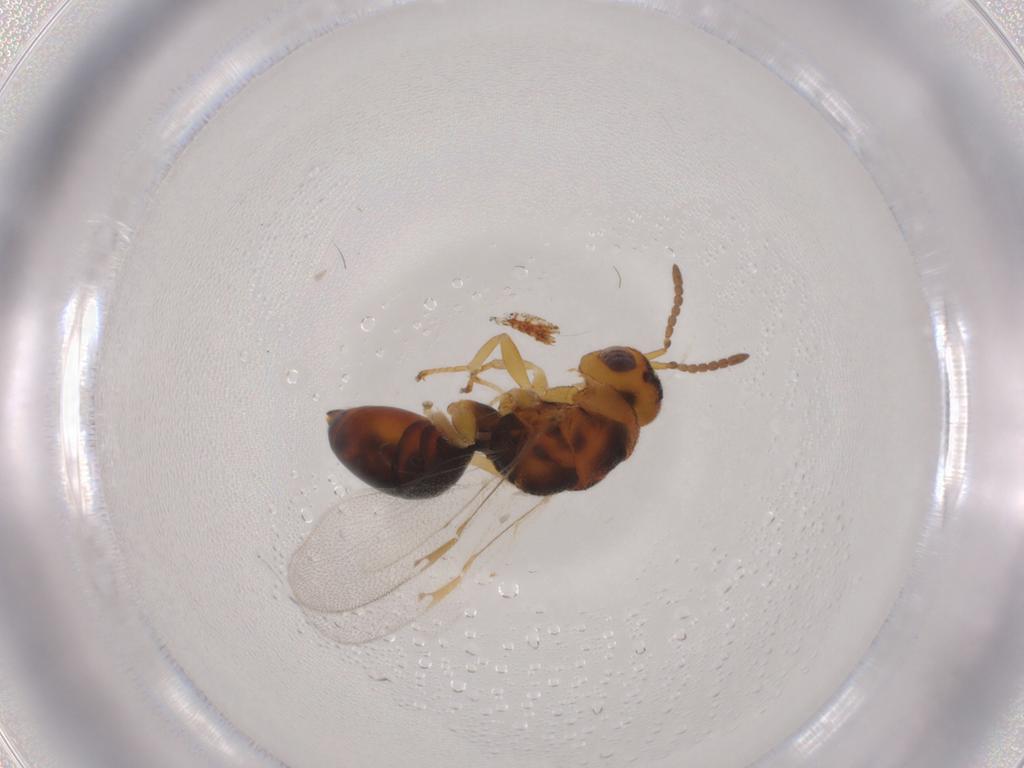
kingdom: Animalia
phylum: Arthropoda
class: Insecta
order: Hymenoptera
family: Eurytomidae
